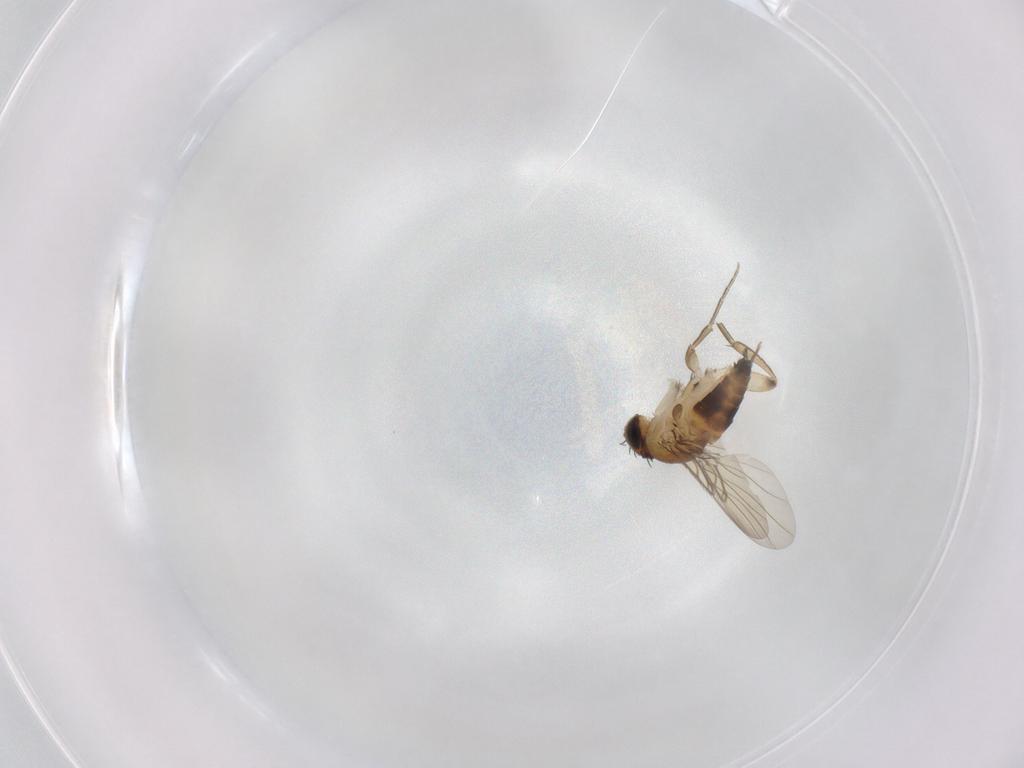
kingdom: Animalia
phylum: Arthropoda
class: Insecta
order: Diptera
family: Phoridae
